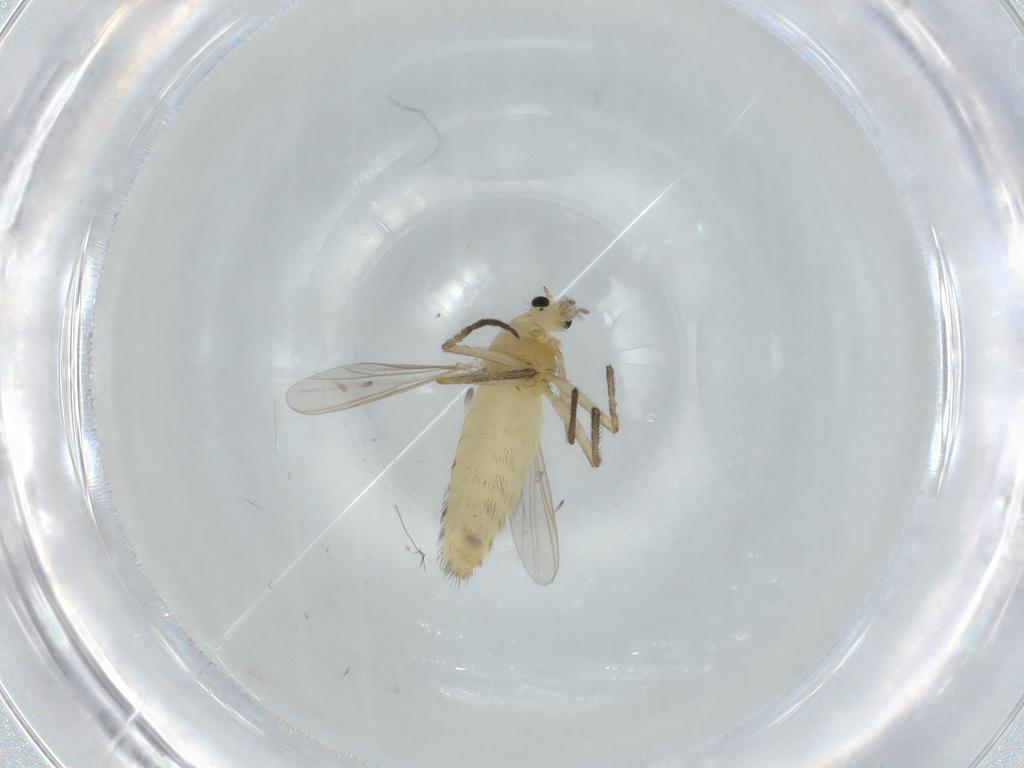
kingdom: Animalia
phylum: Arthropoda
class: Insecta
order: Diptera
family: Chironomidae
